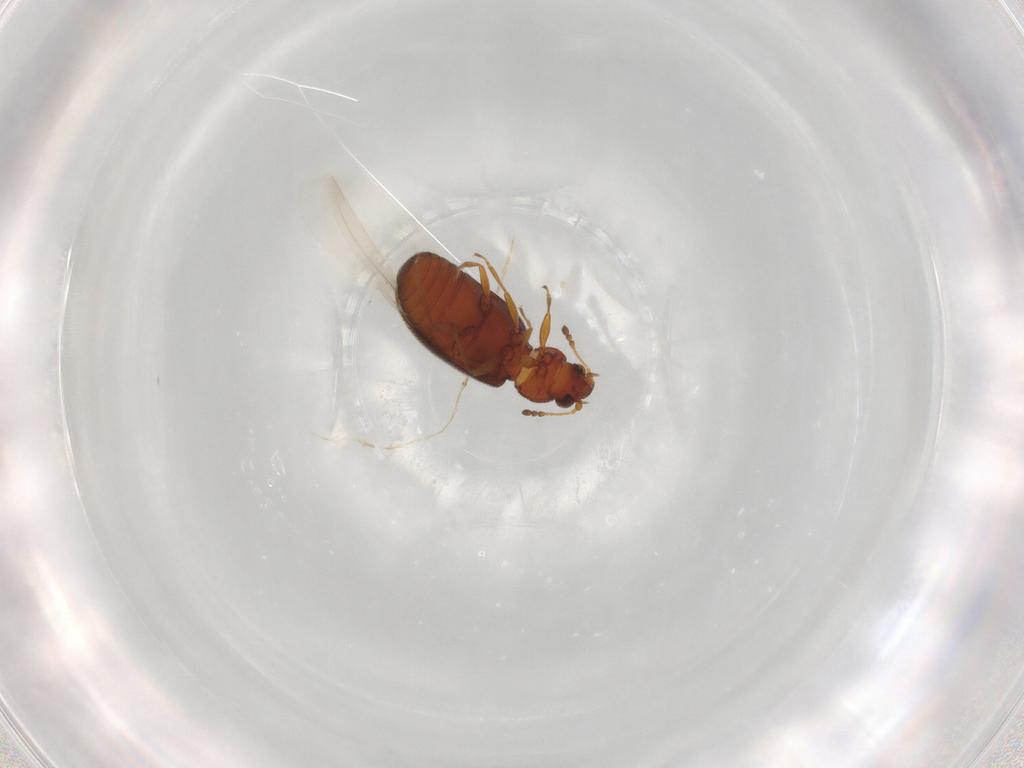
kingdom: Animalia
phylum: Arthropoda
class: Insecta
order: Coleoptera
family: Latridiidae
